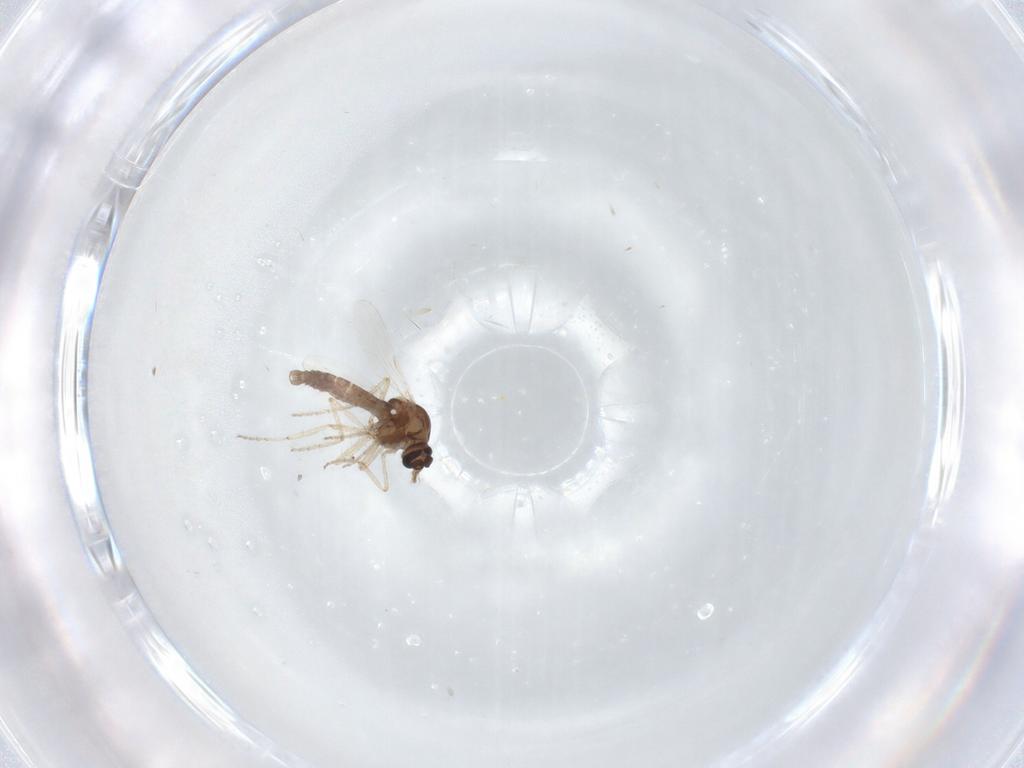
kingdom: Animalia
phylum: Arthropoda
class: Insecta
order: Diptera
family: Ceratopogonidae
